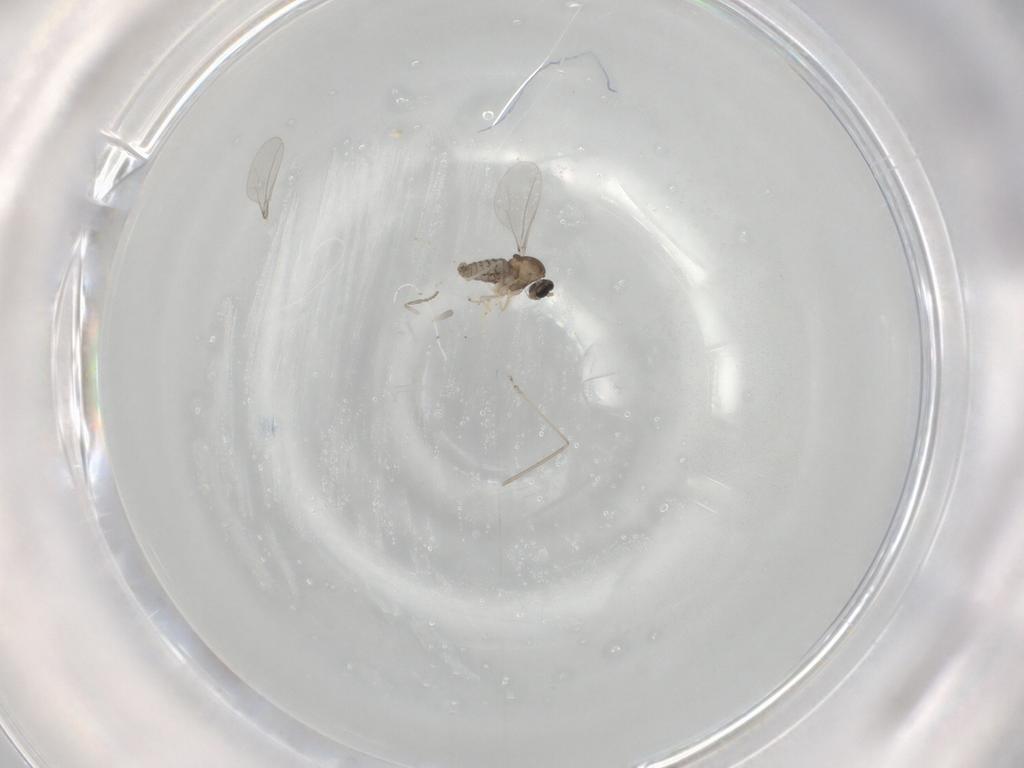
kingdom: Animalia
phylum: Arthropoda
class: Insecta
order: Diptera
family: Psychodidae
